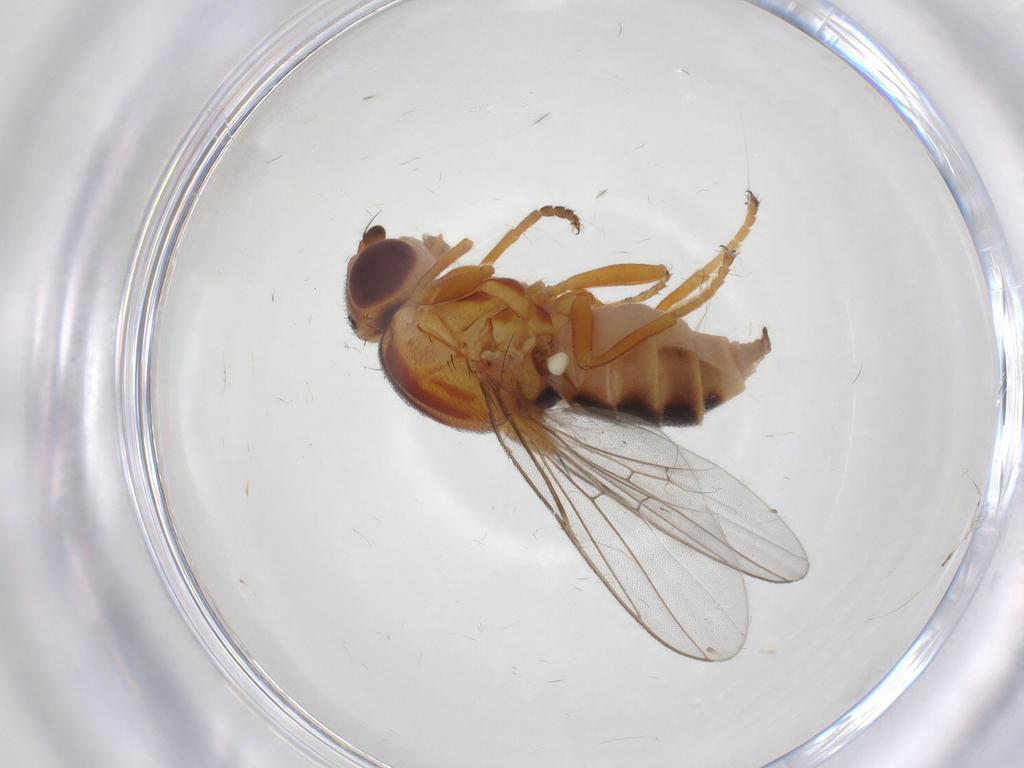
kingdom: Animalia
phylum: Arthropoda
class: Insecta
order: Diptera
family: Chloropidae
